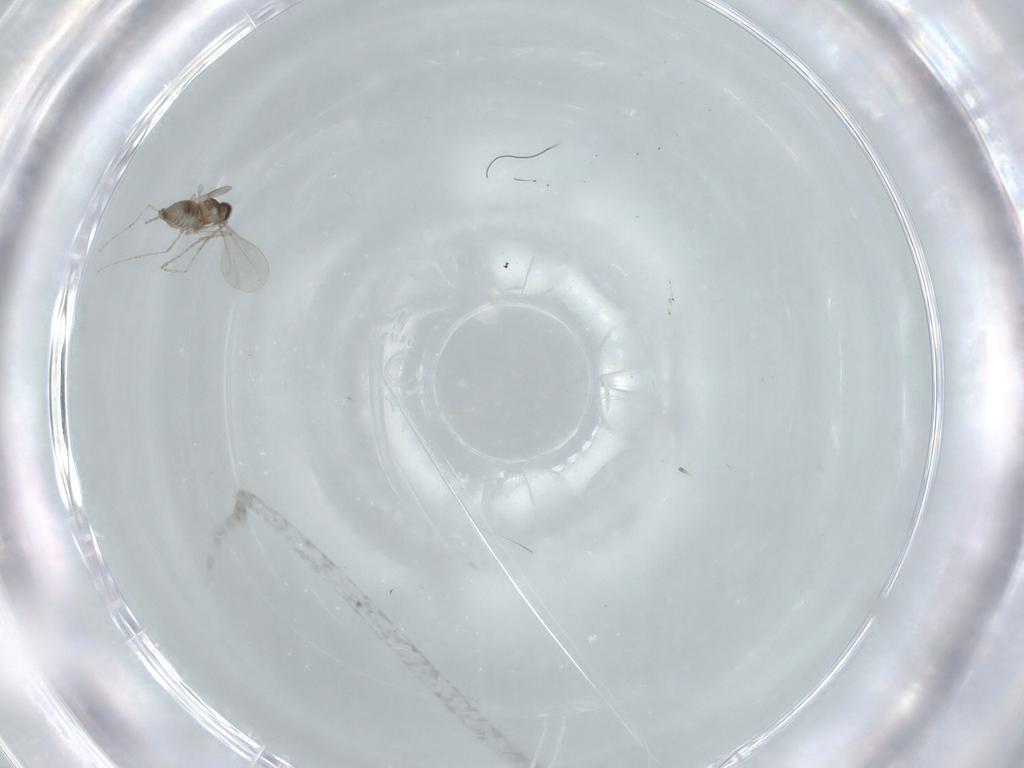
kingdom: Animalia
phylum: Arthropoda
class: Insecta
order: Diptera
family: Cecidomyiidae
